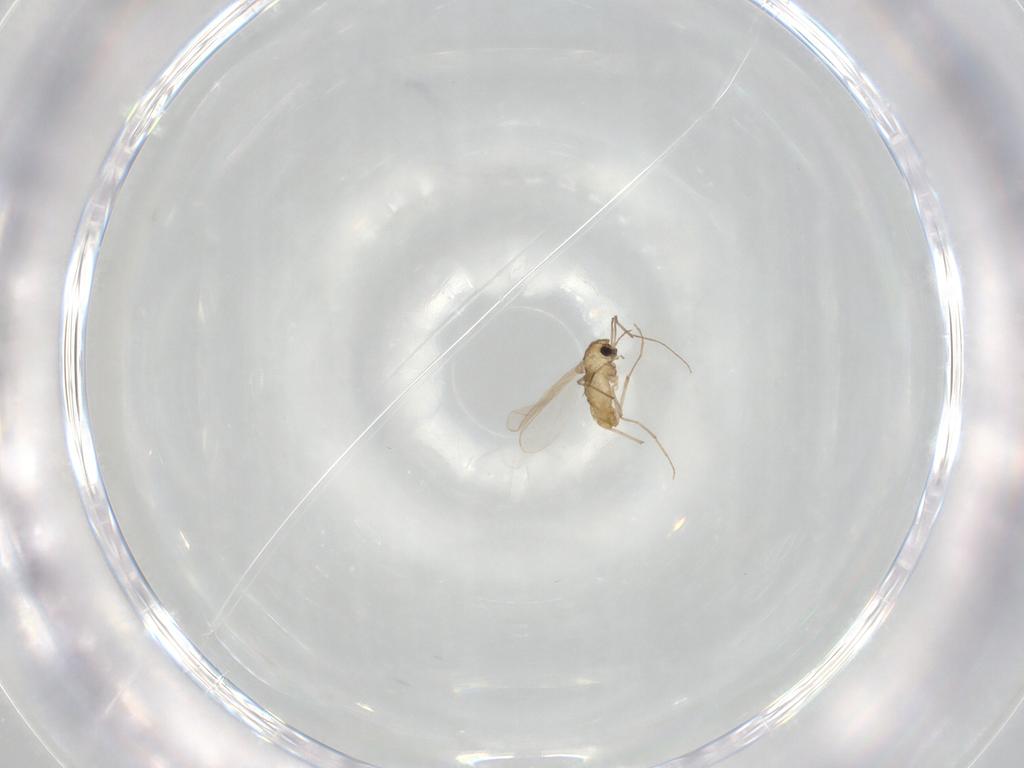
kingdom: Animalia
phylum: Arthropoda
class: Insecta
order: Diptera
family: Chironomidae
